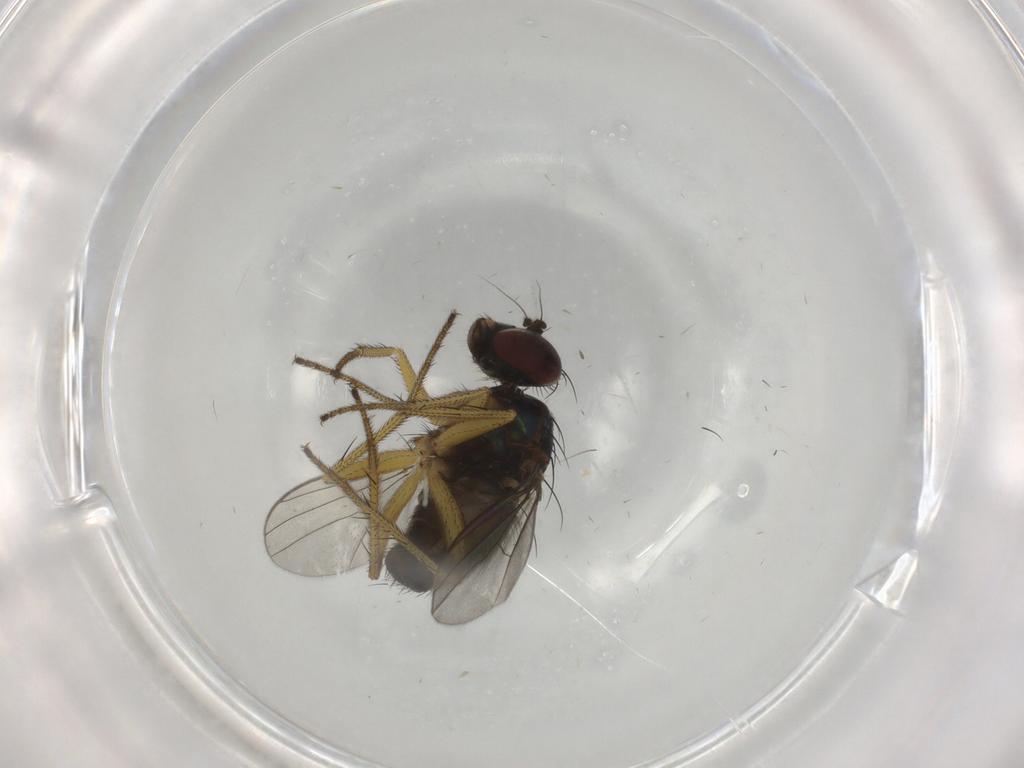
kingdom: Animalia
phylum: Arthropoda
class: Insecta
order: Diptera
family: Dolichopodidae
